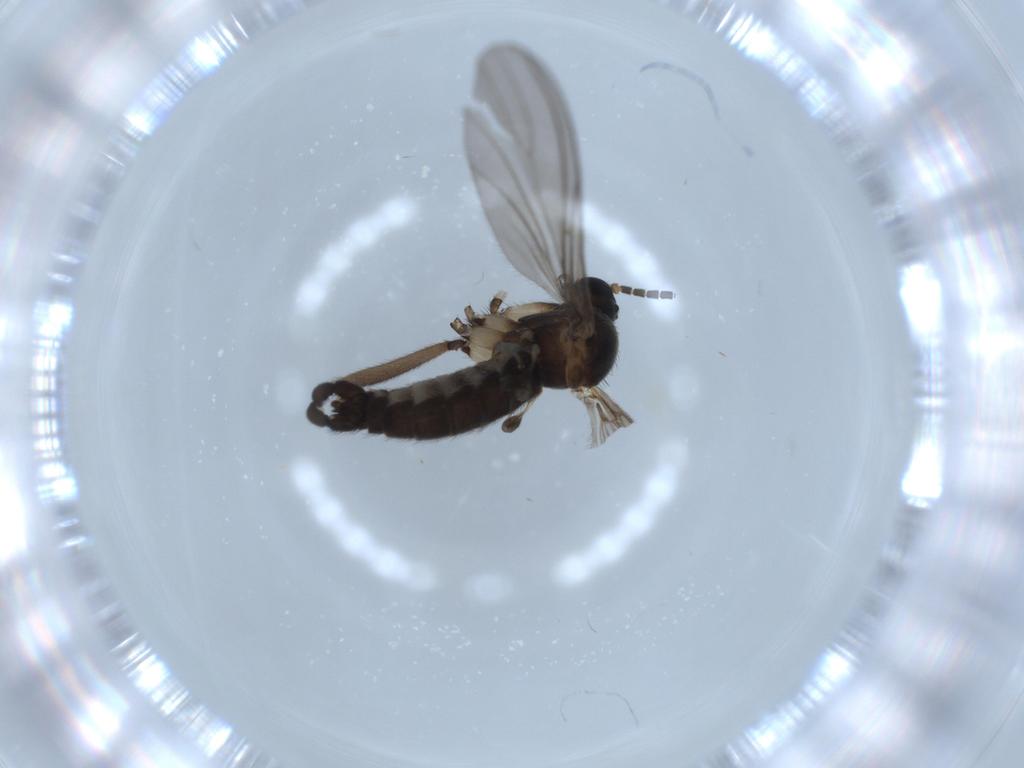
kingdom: Animalia
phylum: Arthropoda
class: Insecta
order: Diptera
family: Sciaridae
